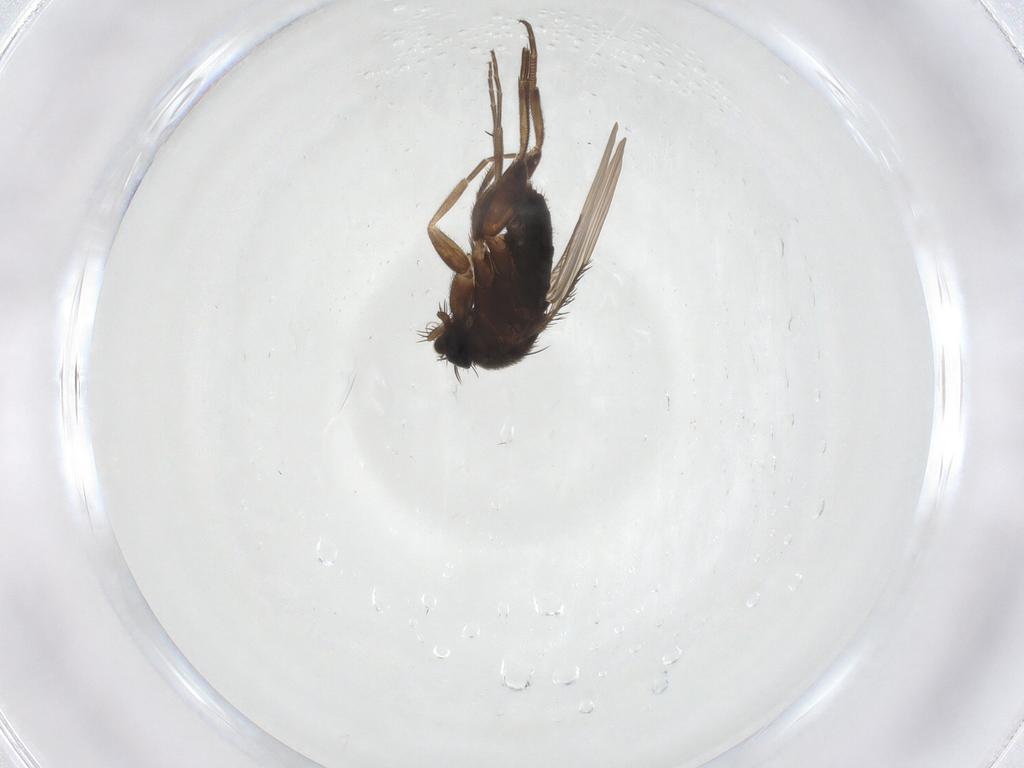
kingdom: Animalia
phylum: Arthropoda
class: Insecta
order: Diptera
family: Phoridae
